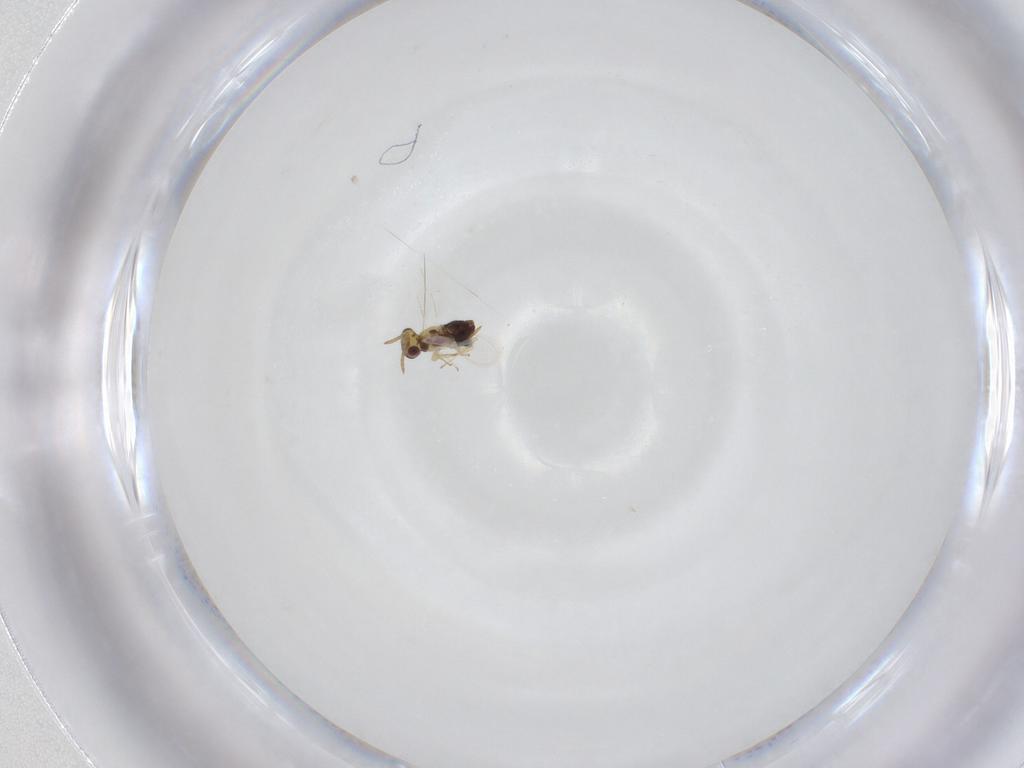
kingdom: Animalia
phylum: Arthropoda
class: Insecta
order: Hymenoptera
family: Aphelinidae
